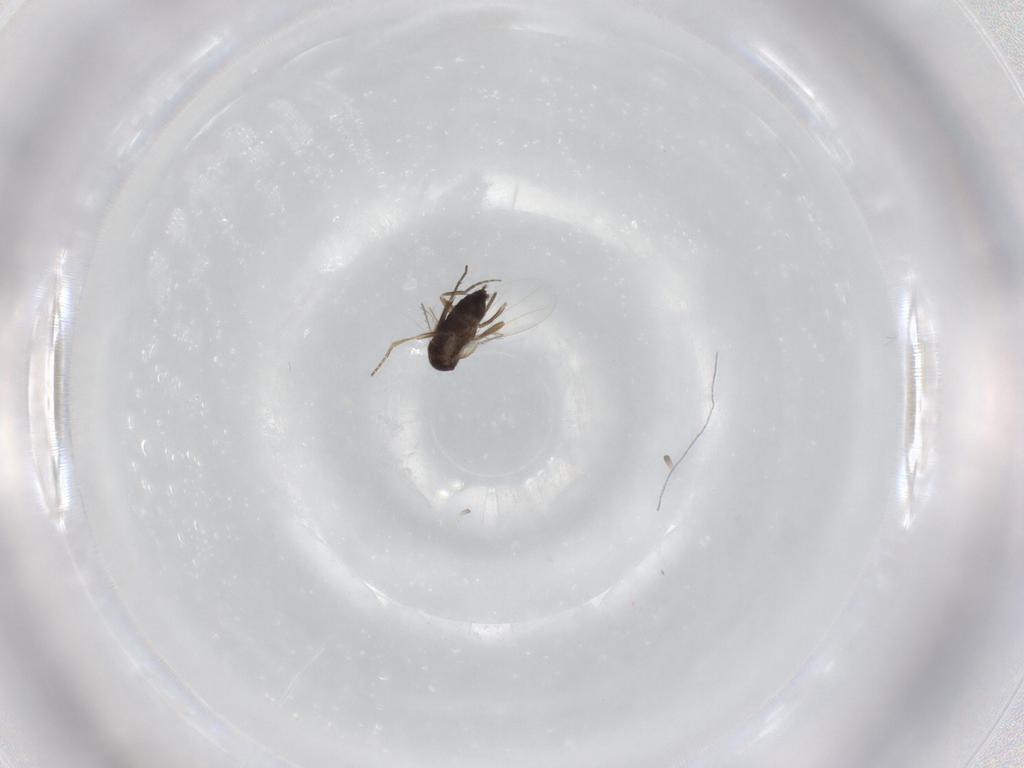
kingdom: Animalia
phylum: Arthropoda
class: Insecta
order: Diptera
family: Phoridae
